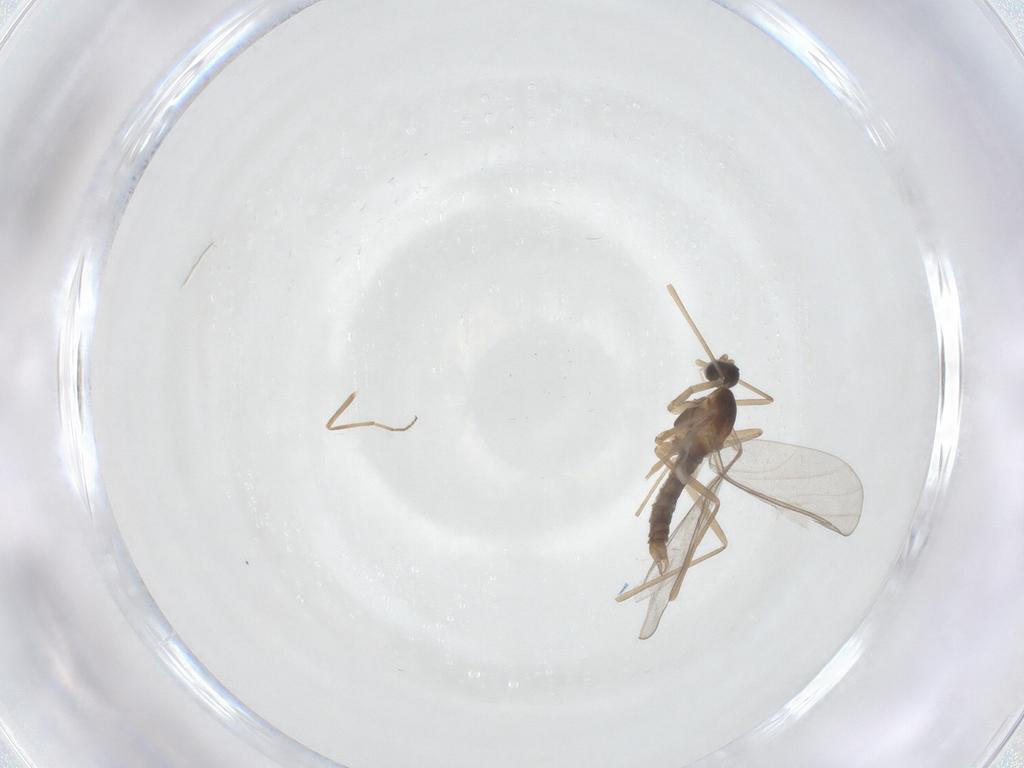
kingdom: Animalia
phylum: Arthropoda
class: Insecta
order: Diptera
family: Cecidomyiidae
